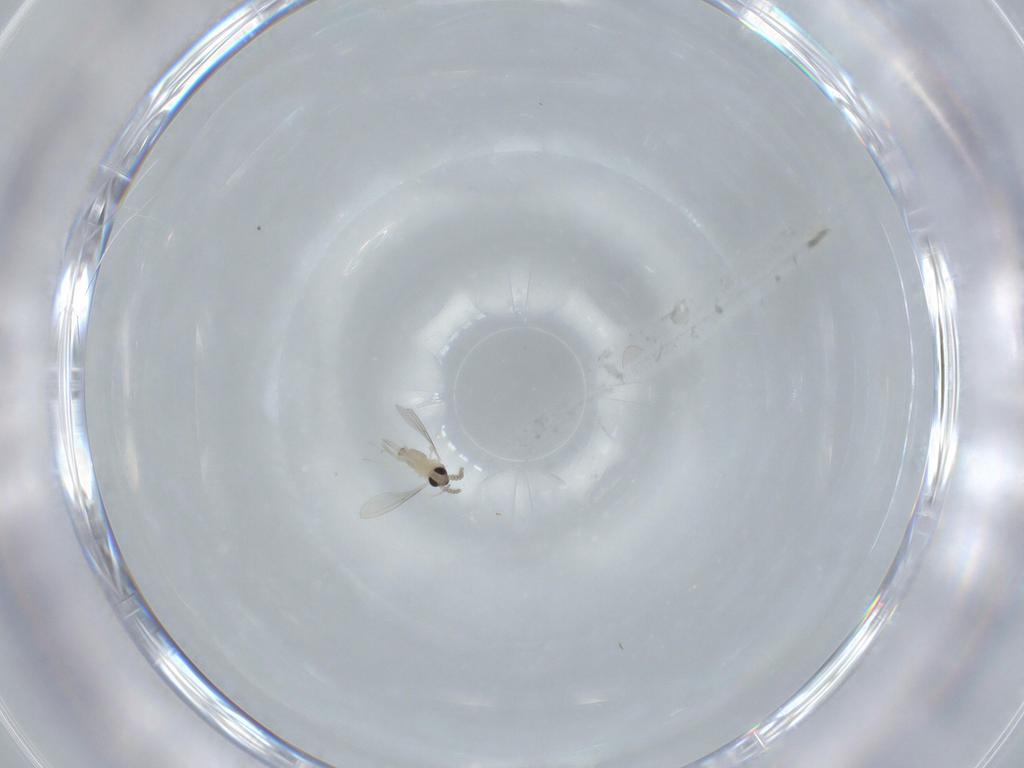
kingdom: Animalia
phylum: Arthropoda
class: Insecta
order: Diptera
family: Cecidomyiidae
